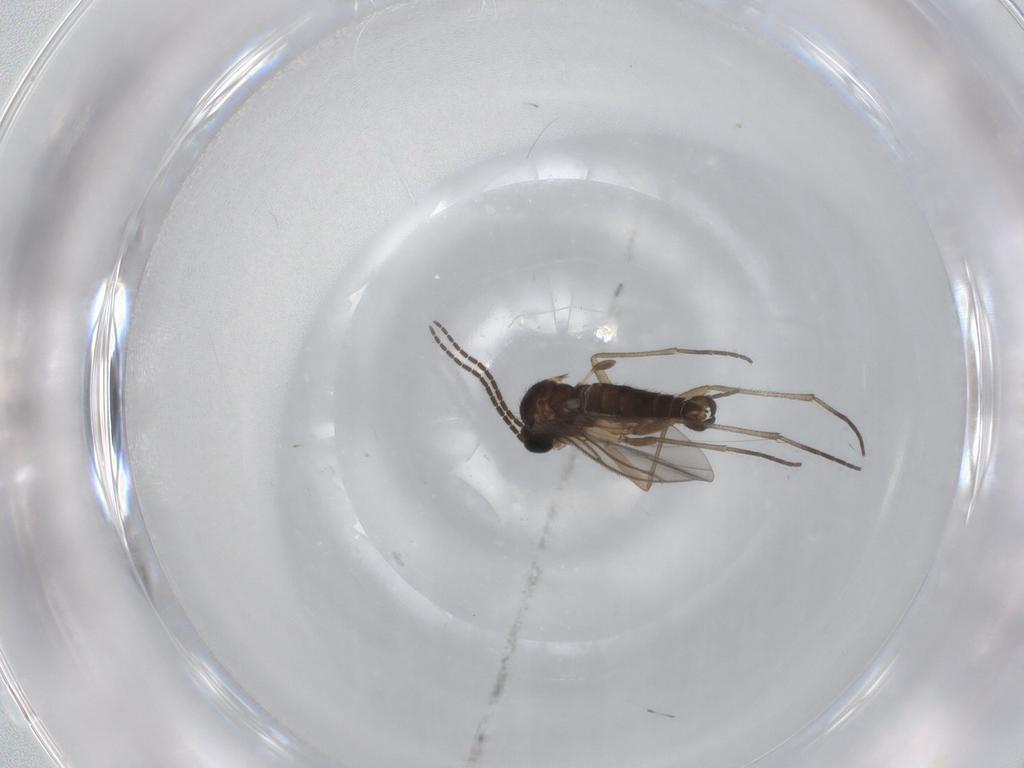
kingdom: Animalia
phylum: Arthropoda
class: Insecta
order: Diptera
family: Sciaridae
